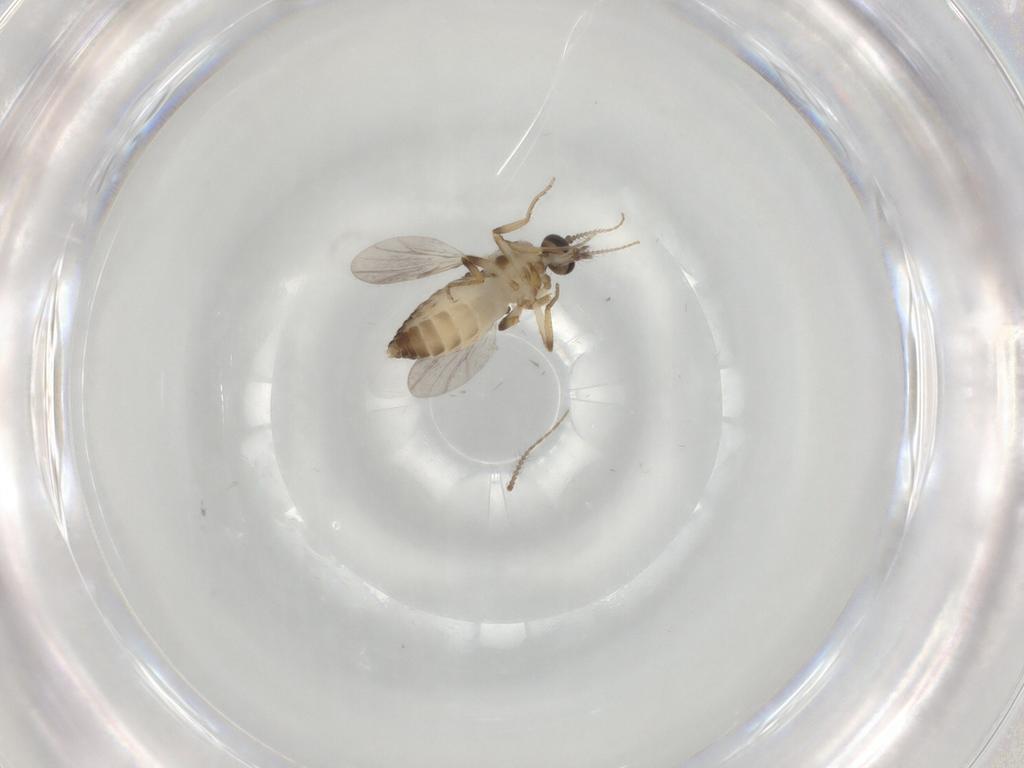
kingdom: Animalia
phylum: Arthropoda
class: Insecta
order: Diptera
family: Ceratopogonidae
